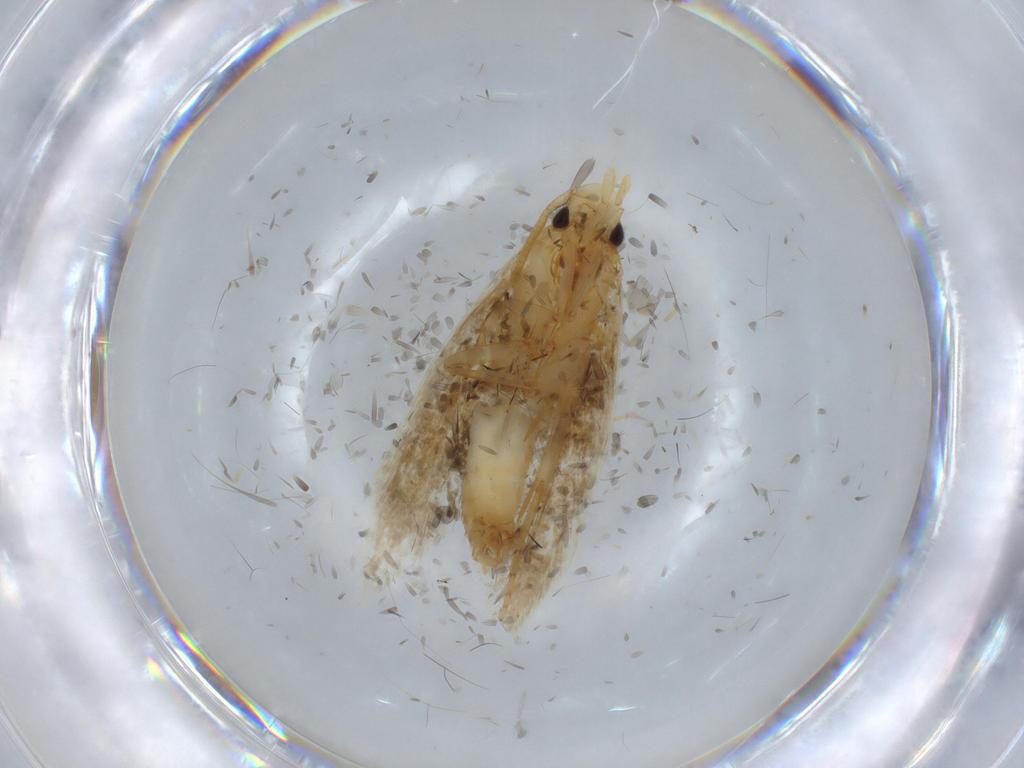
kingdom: Animalia
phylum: Arthropoda
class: Insecta
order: Lepidoptera
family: Tineidae
